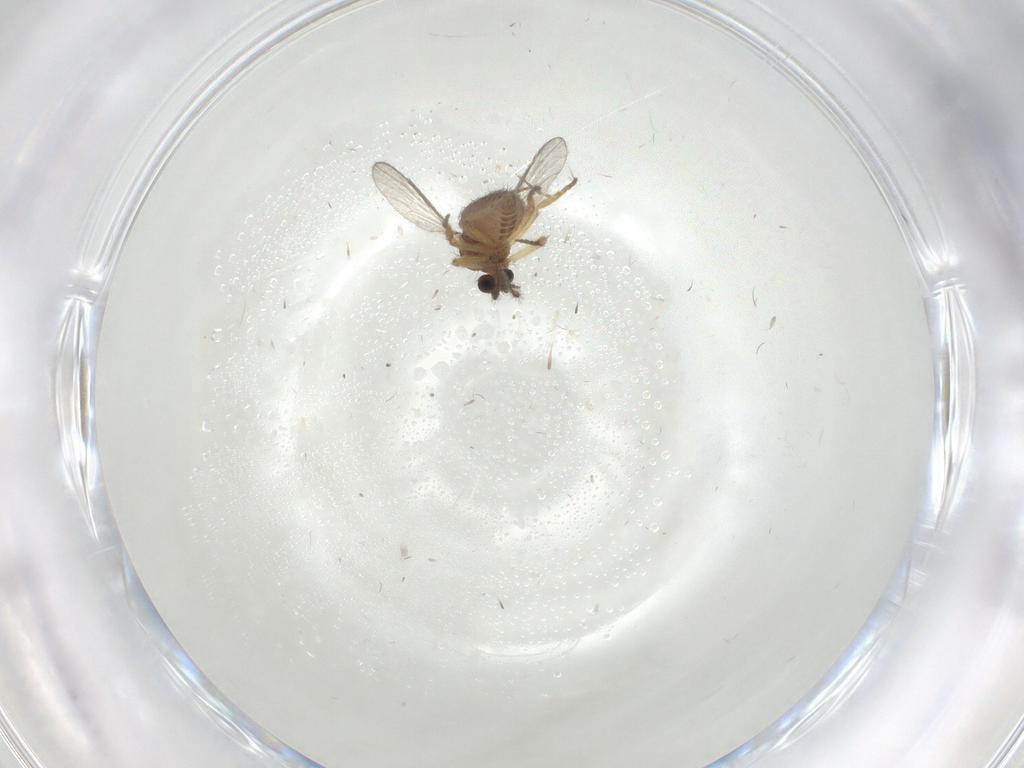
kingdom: Animalia
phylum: Arthropoda
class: Insecta
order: Diptera
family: Ceratopogonidae
